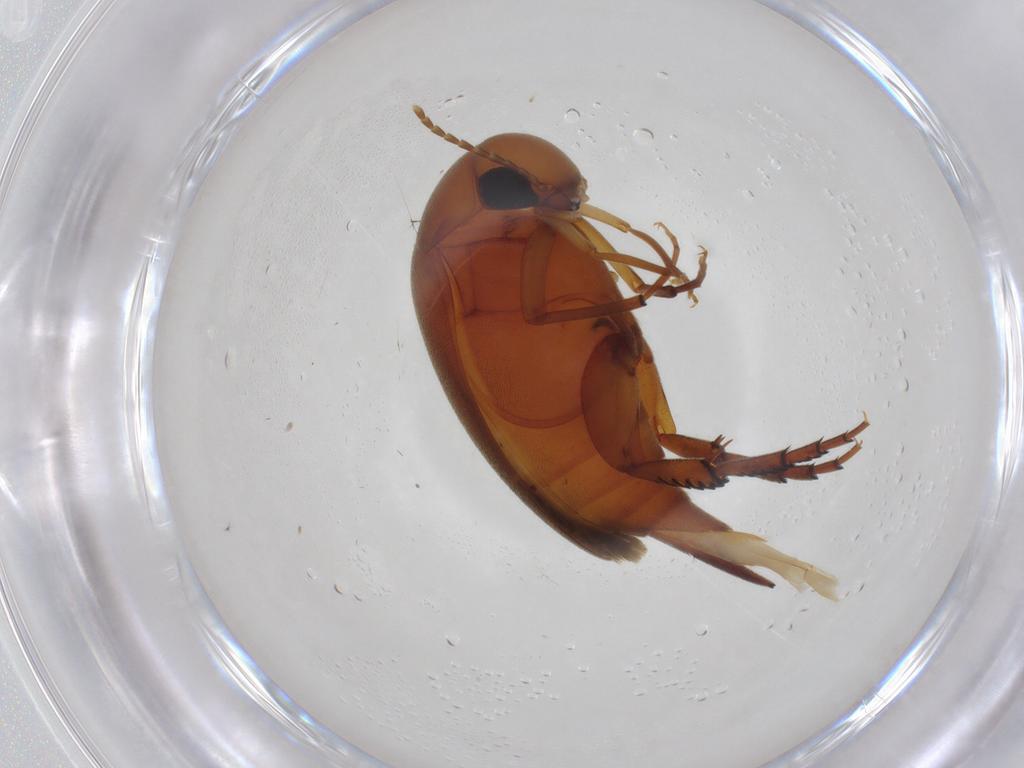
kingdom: Animalia
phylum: Arthropoda
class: Insecta
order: Coleoptera
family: Mordellidae
